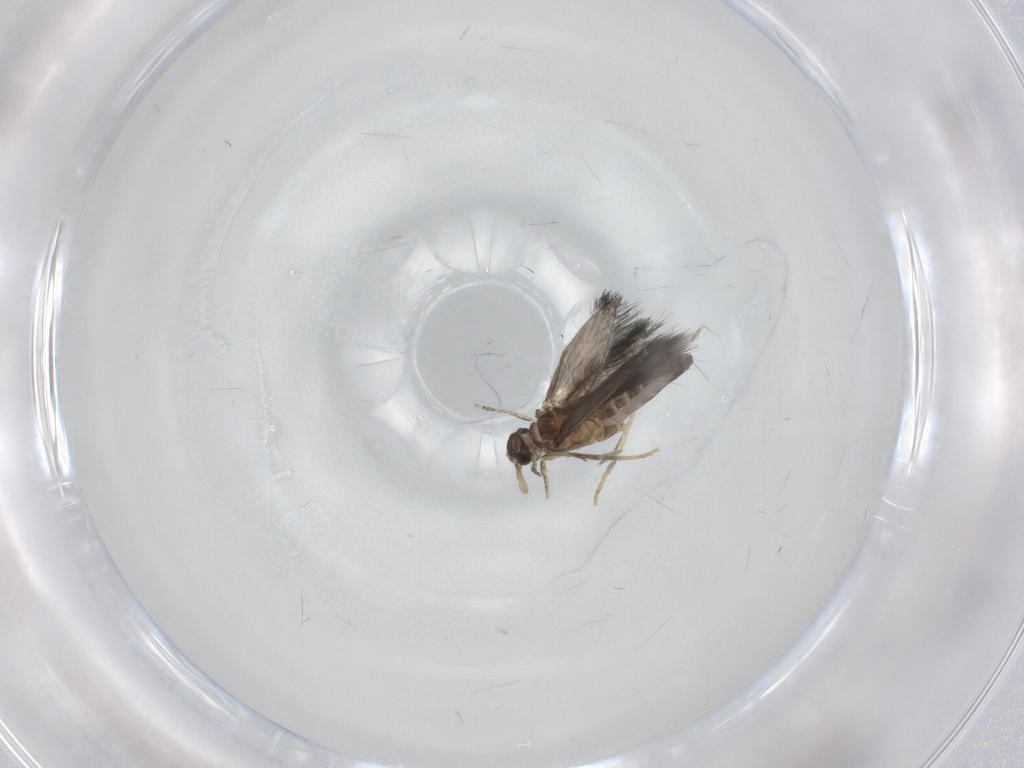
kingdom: Animalia
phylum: Arthropoda
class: Insecta
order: Trichoptera
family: Hydroptilidae
